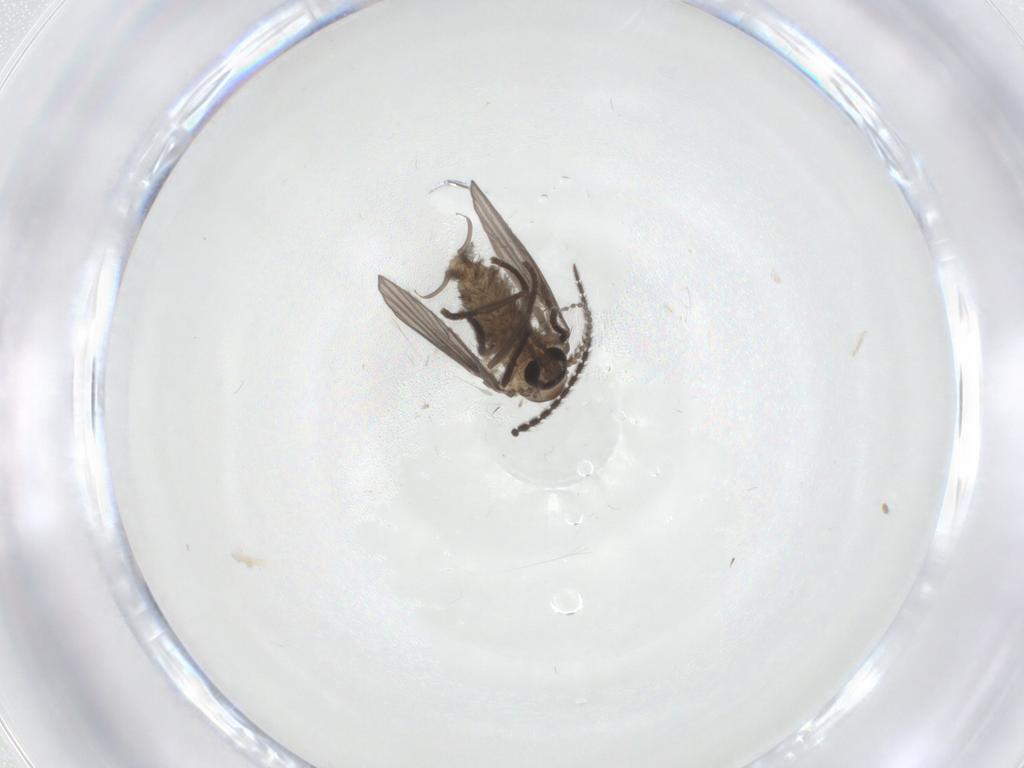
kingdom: Animalia
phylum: Arthropoda
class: Insecta
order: Diptera
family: Psychodidae
